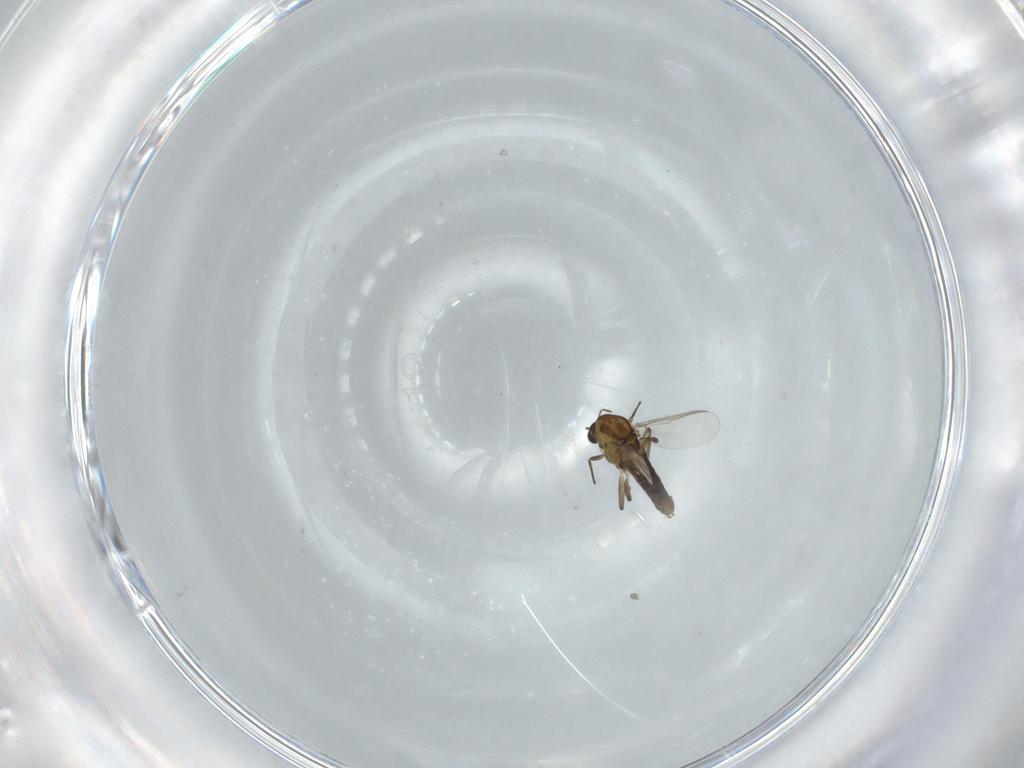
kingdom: Animalia
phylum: Arthropoda
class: Insecta
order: Diptera
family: Chironomidae
